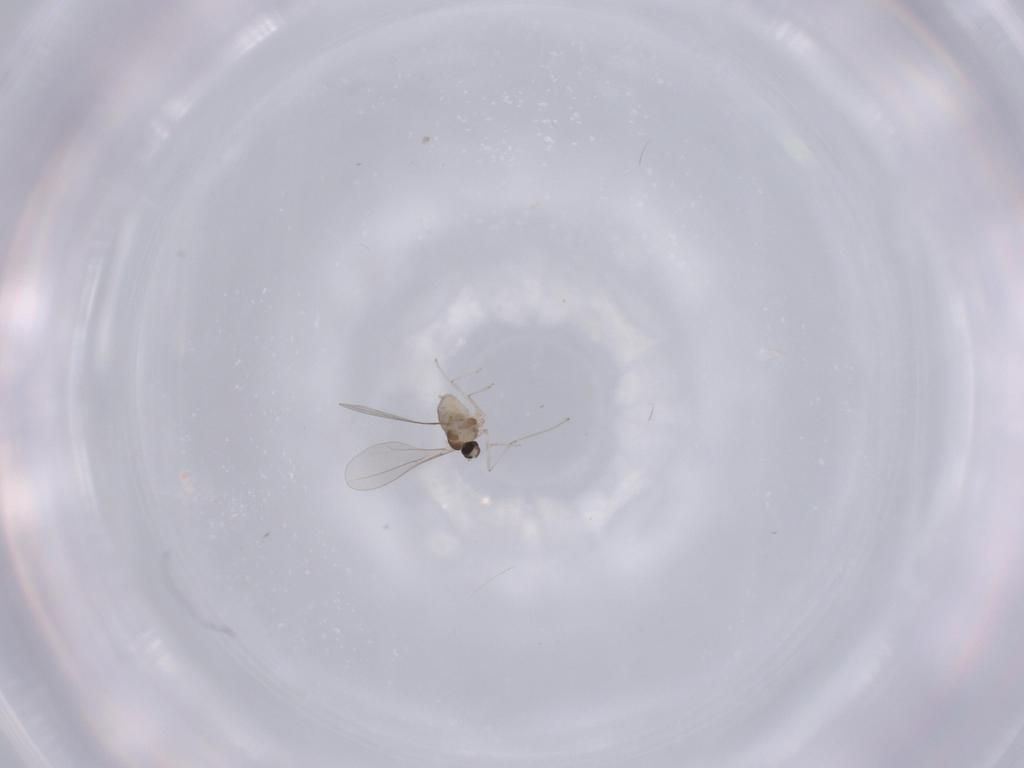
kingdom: Animalia
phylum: Arthropoda
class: Insecta
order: Diptera
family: Cecidomyiidae
